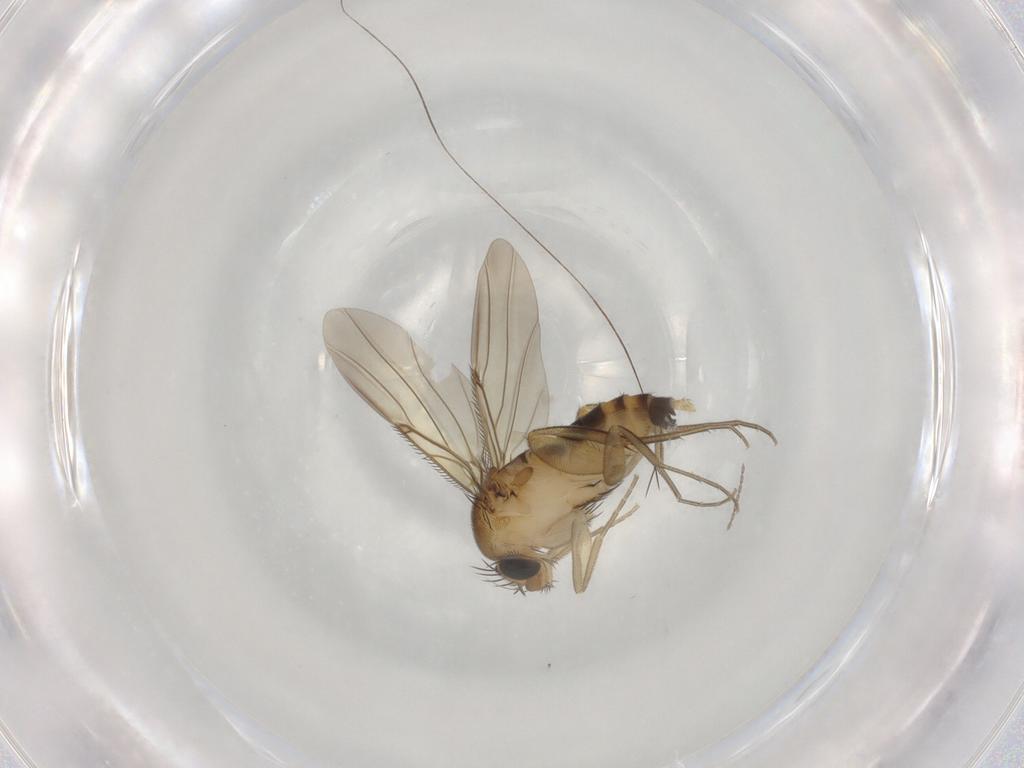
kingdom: Animalia
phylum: Arthropoda
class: Insecta
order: Diptera
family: Phoridae
